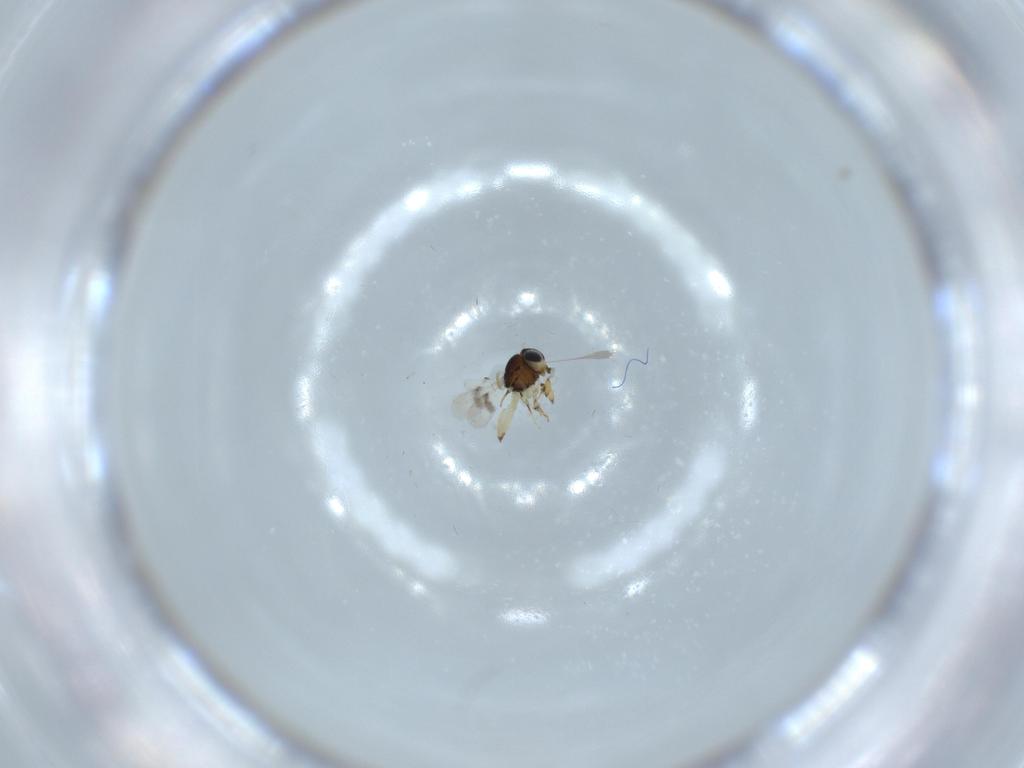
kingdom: Animalia
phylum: Arthropoda
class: Insecta
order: Hymenoptera
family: Scelionidae
